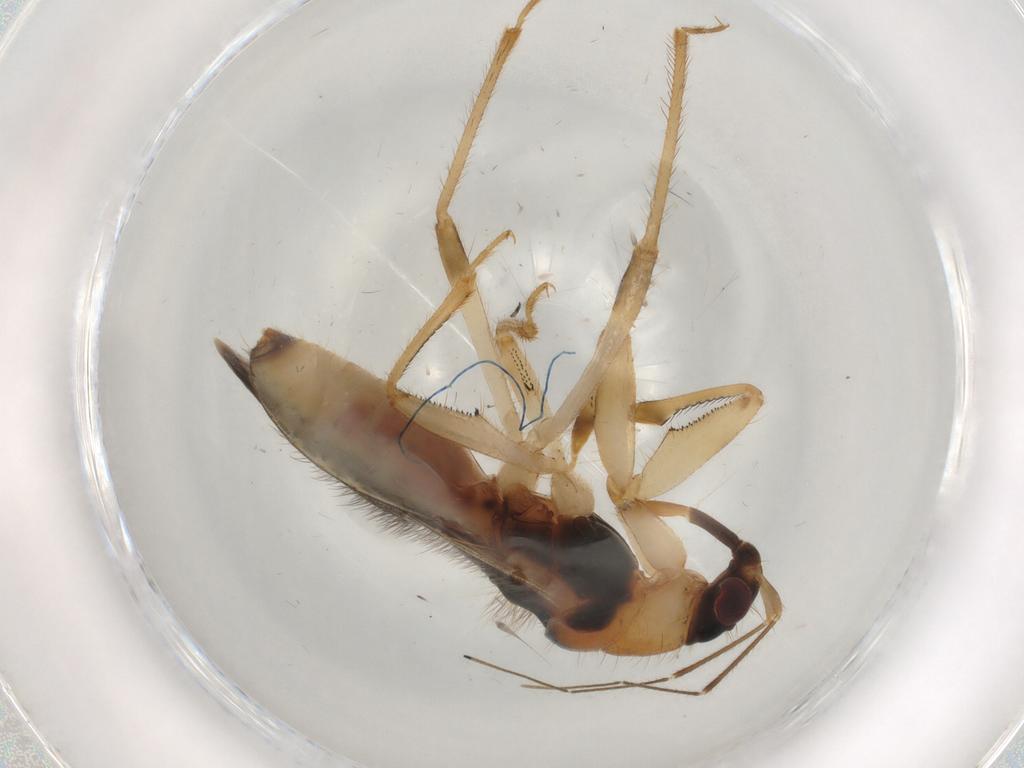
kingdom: Animalia
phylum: Arthropoda
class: Insecta
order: Hemiptera
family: Nabidae
